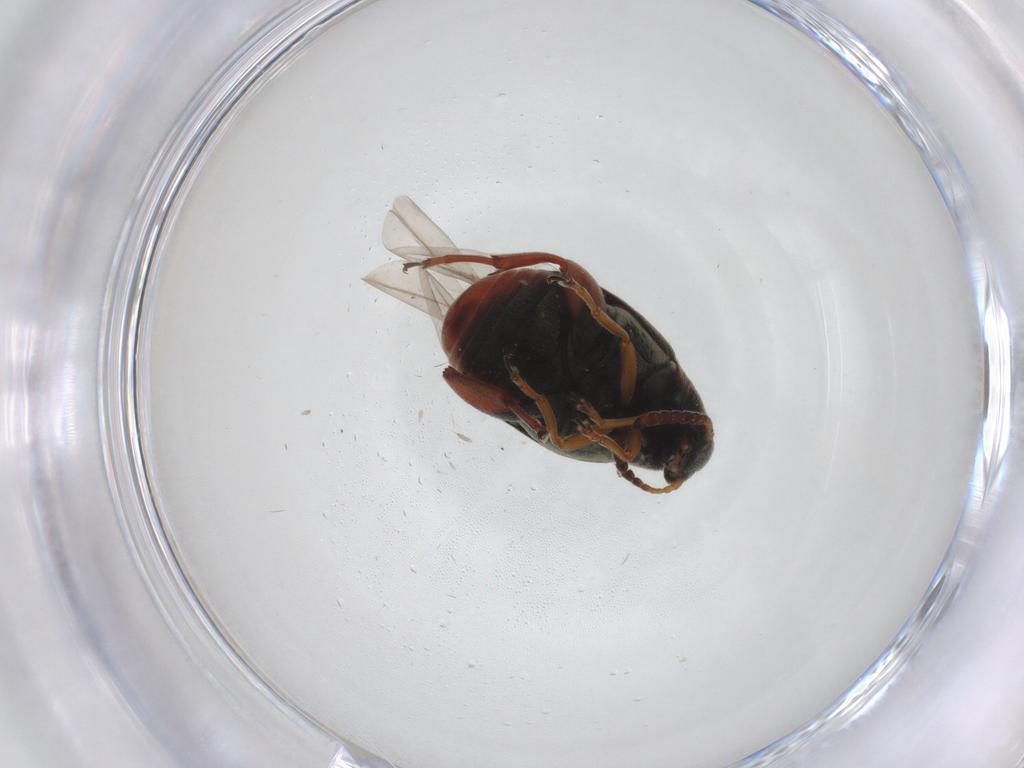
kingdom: Animalia
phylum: Arthropoda
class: Insecta
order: Coleoptera
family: Chrysomelidae
